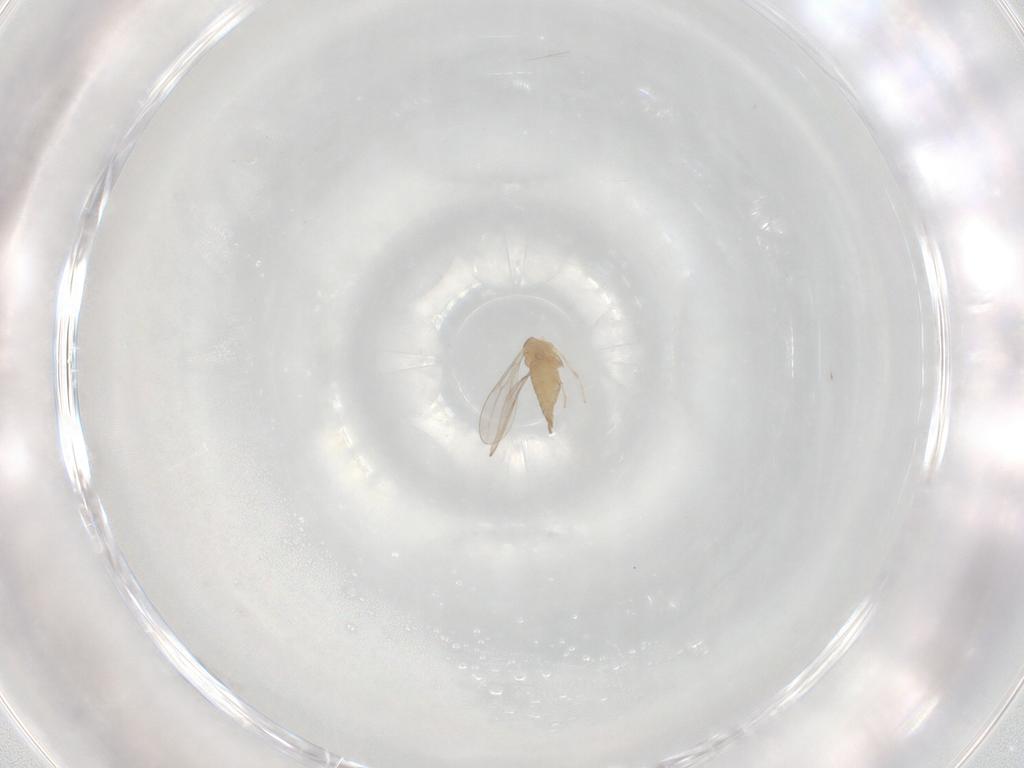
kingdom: Animalia
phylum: Arthropoda
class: Insecta
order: Diptera
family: Cecidomyiidae
